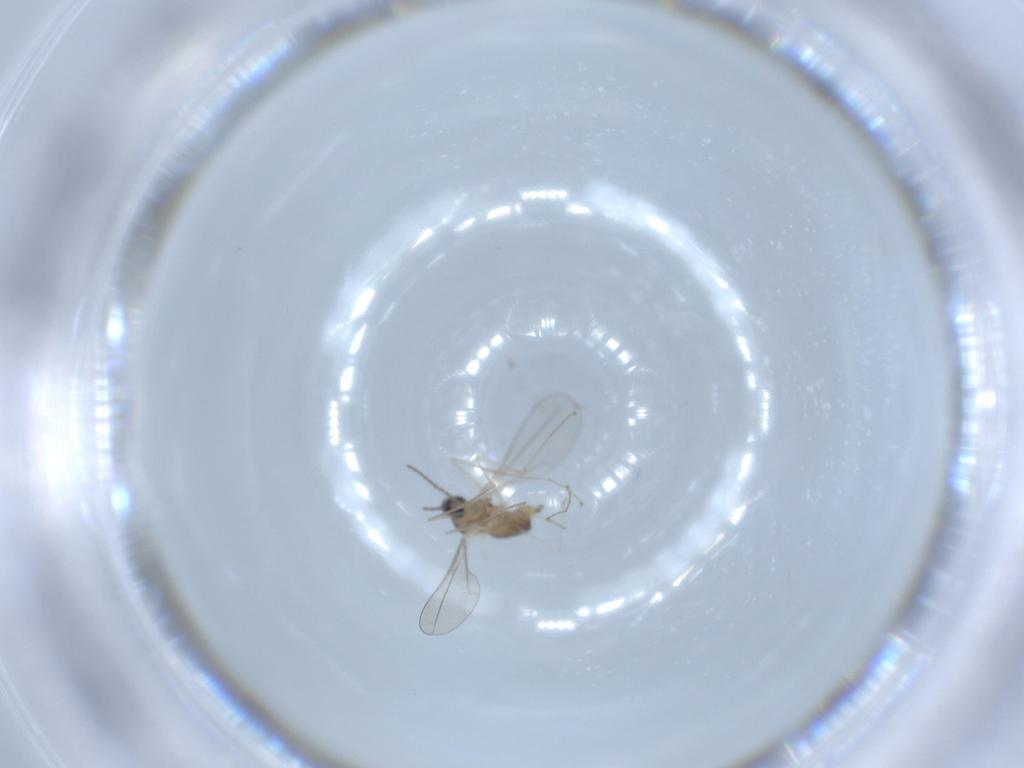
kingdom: Animalia
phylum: Arthropoda
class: Insecta
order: Diptera
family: Cecidomyiidae
